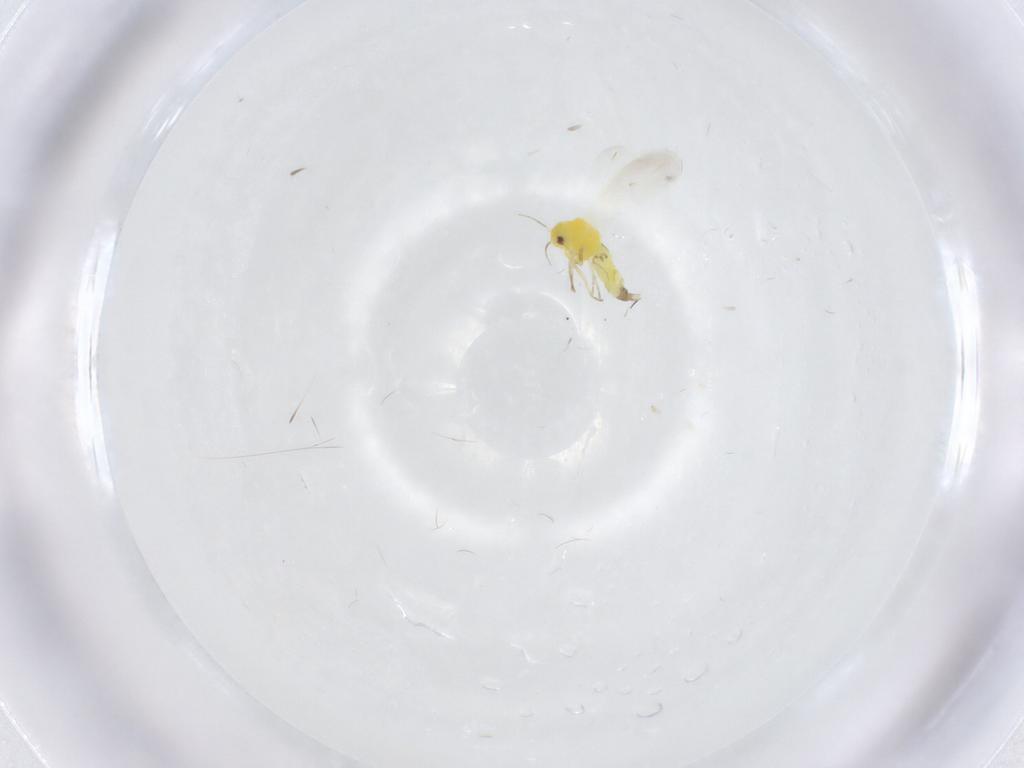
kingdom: Animalia
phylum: Arthropoda
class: Insecta
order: Hemiptera
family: Aleyrodidae
